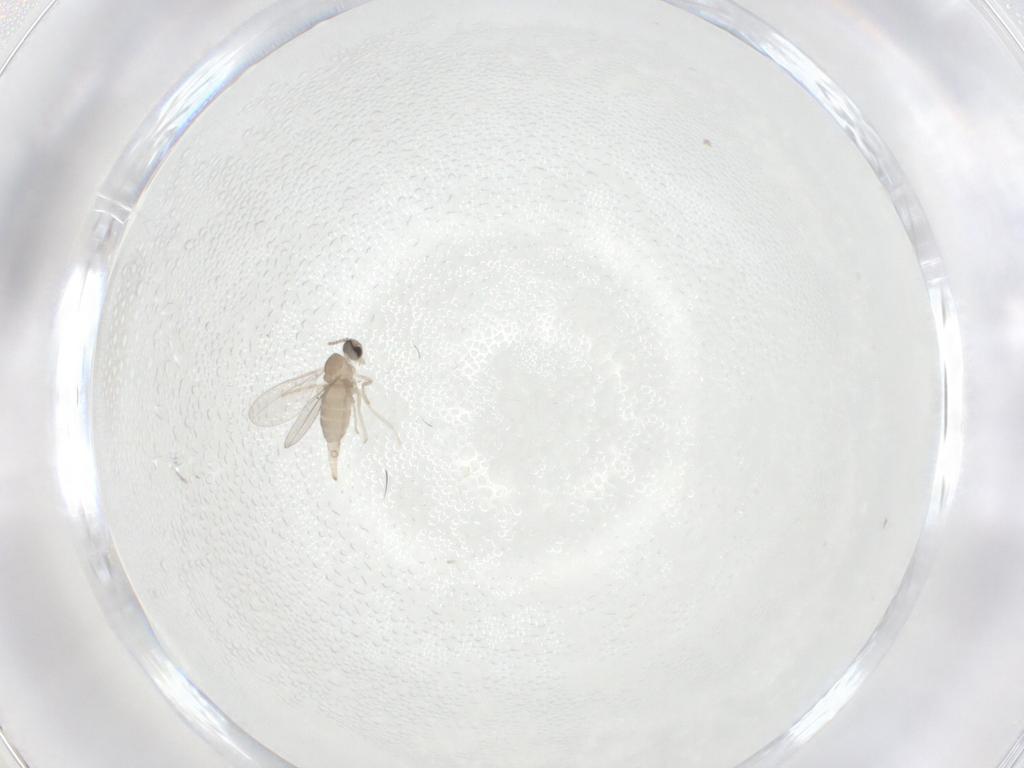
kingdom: Animalia
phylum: Arthropoda
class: Insecta
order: Diptera
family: Chironomidae
